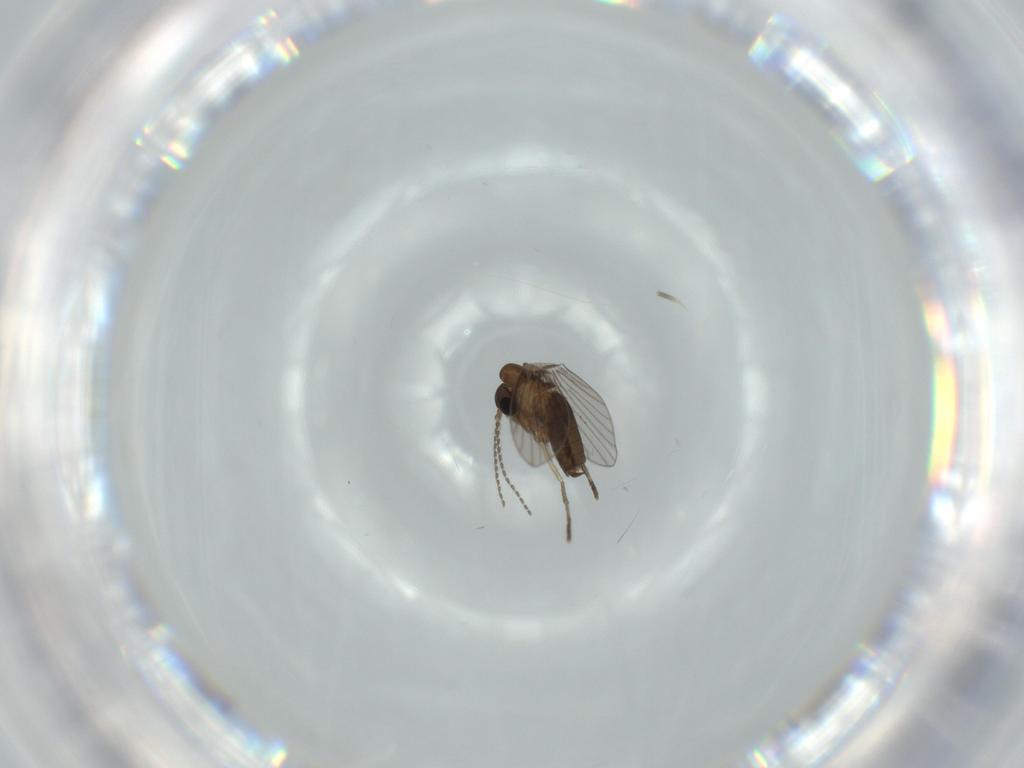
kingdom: Animalia
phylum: Arthropoda
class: Insecta
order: Diptera
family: Psychodidae
